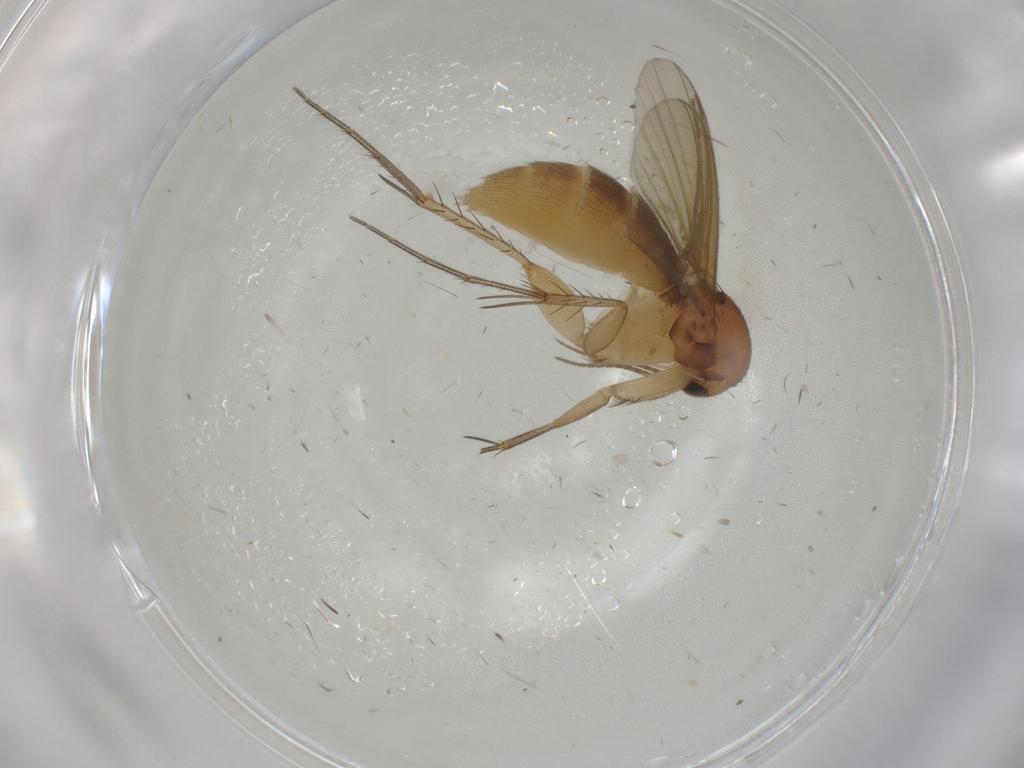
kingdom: Animalia
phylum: Arthropoda
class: Insecta
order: Diptera
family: Mycetophilidae
